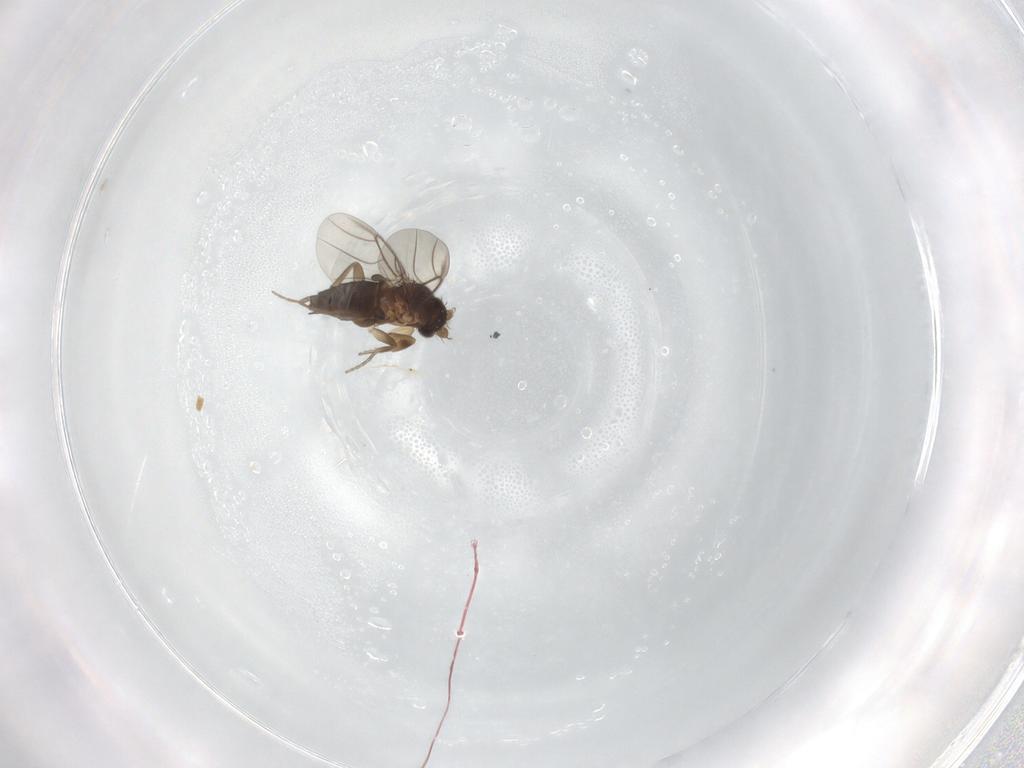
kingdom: Animalia
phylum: Arthropoda
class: Insecta
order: Diptera
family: Phoridae
